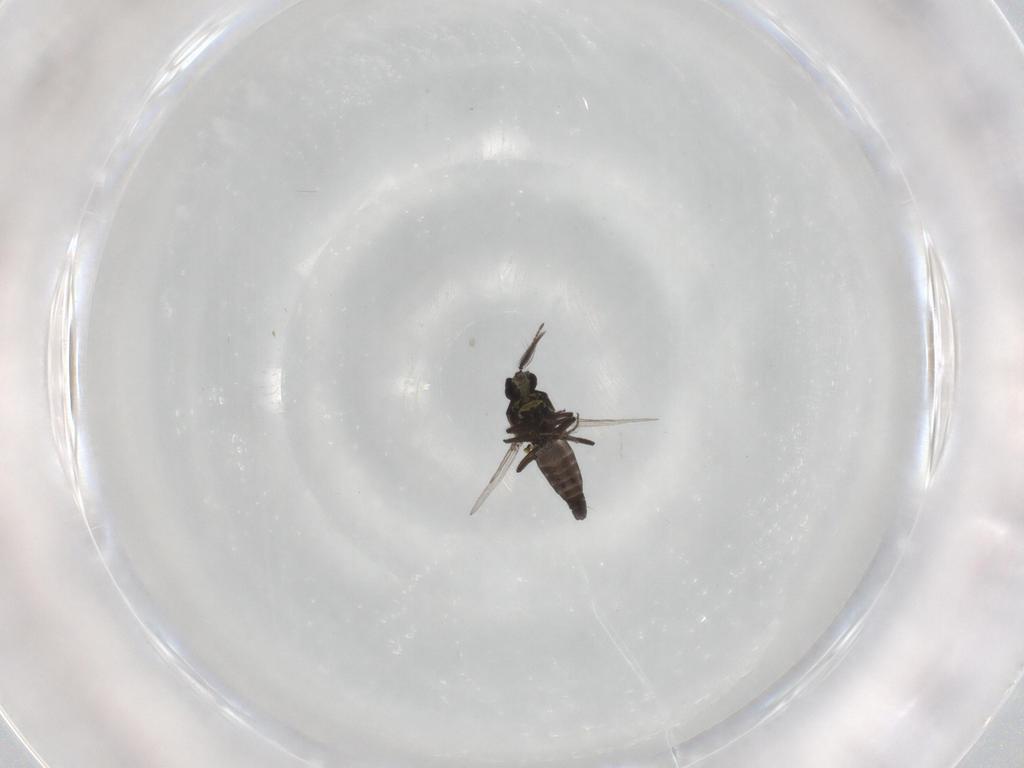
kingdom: Animalia
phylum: Arthropoda
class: Insecta
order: Diptera
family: Ceratopogonidae
